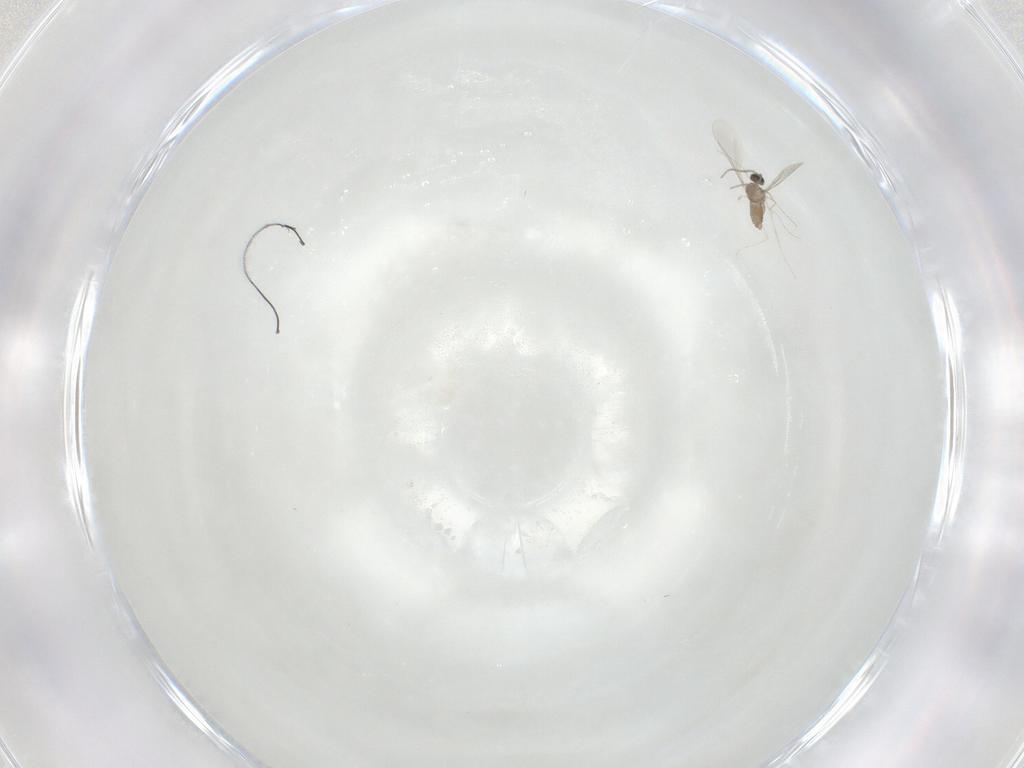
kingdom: Animalia
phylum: Arthropoda
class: Insecta
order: Diptera
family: Cecidomyiidae
